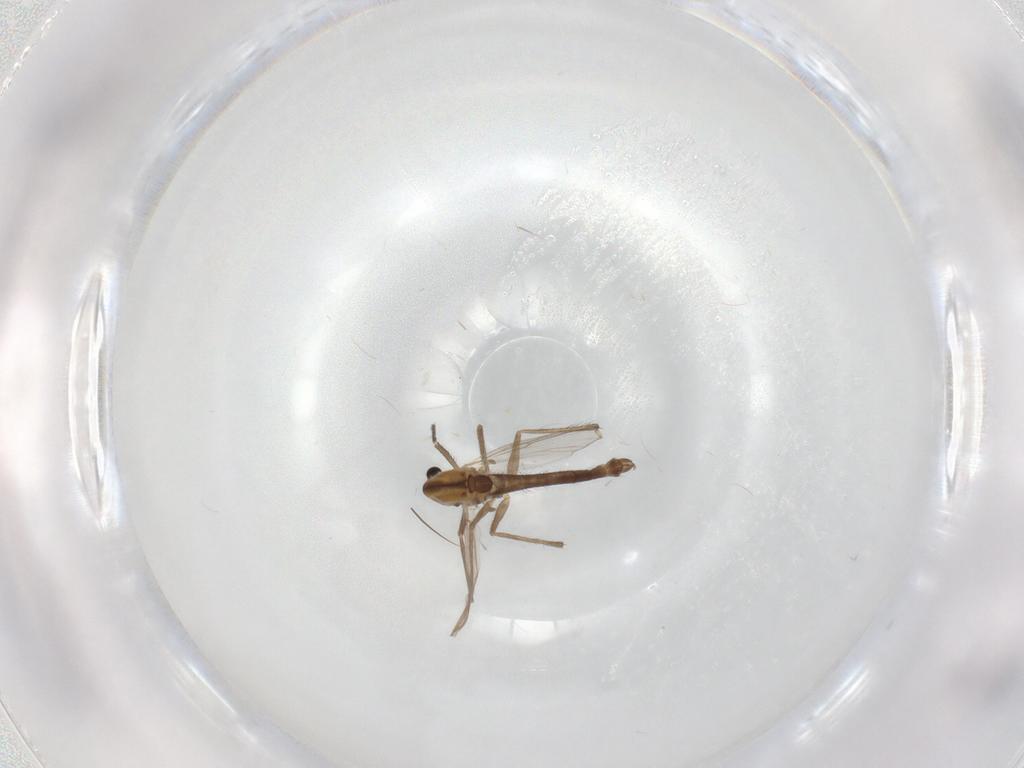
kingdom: Animalia
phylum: Arthropoda
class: Insecta
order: Diptera
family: Chironomidae
